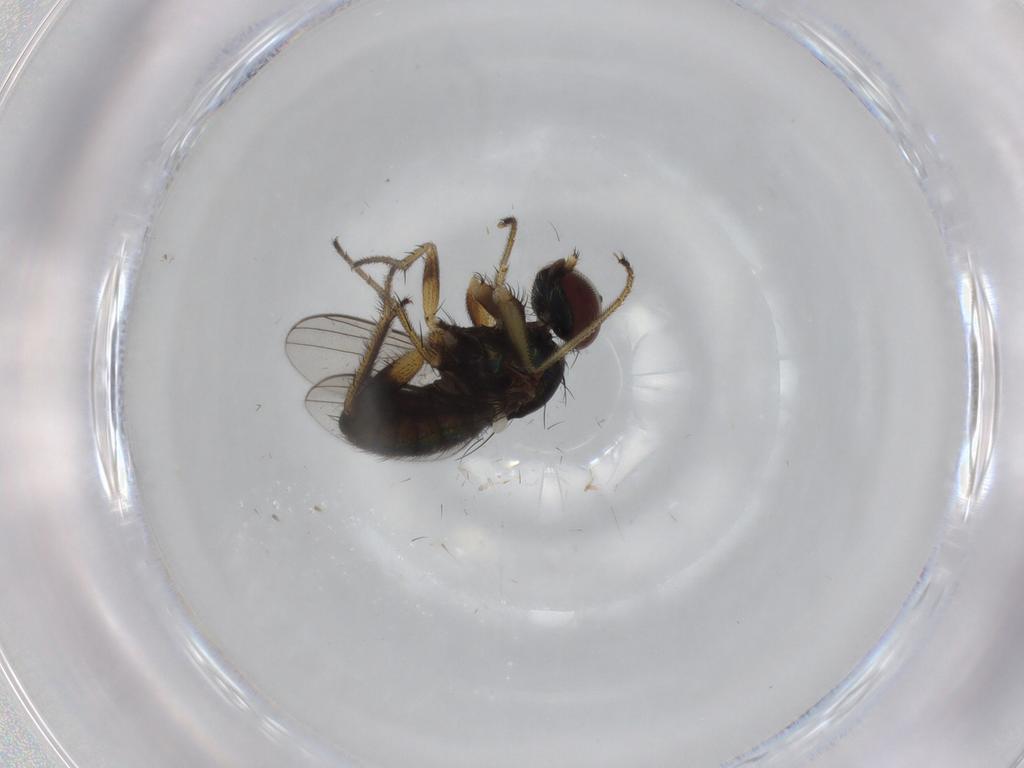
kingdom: Animalia
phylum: Arthropoda
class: Insecta
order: Diptera
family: Dolichopodidae
